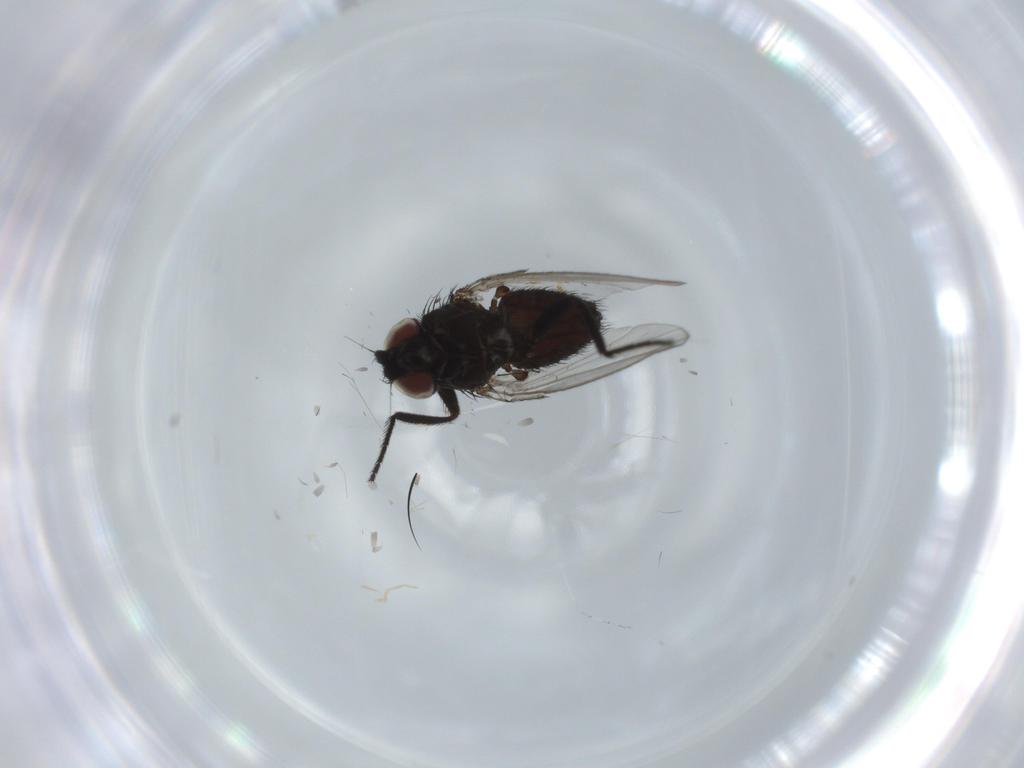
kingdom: Animalia
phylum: Arthropoda
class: Insecta
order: Diptera
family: Milichiidae
